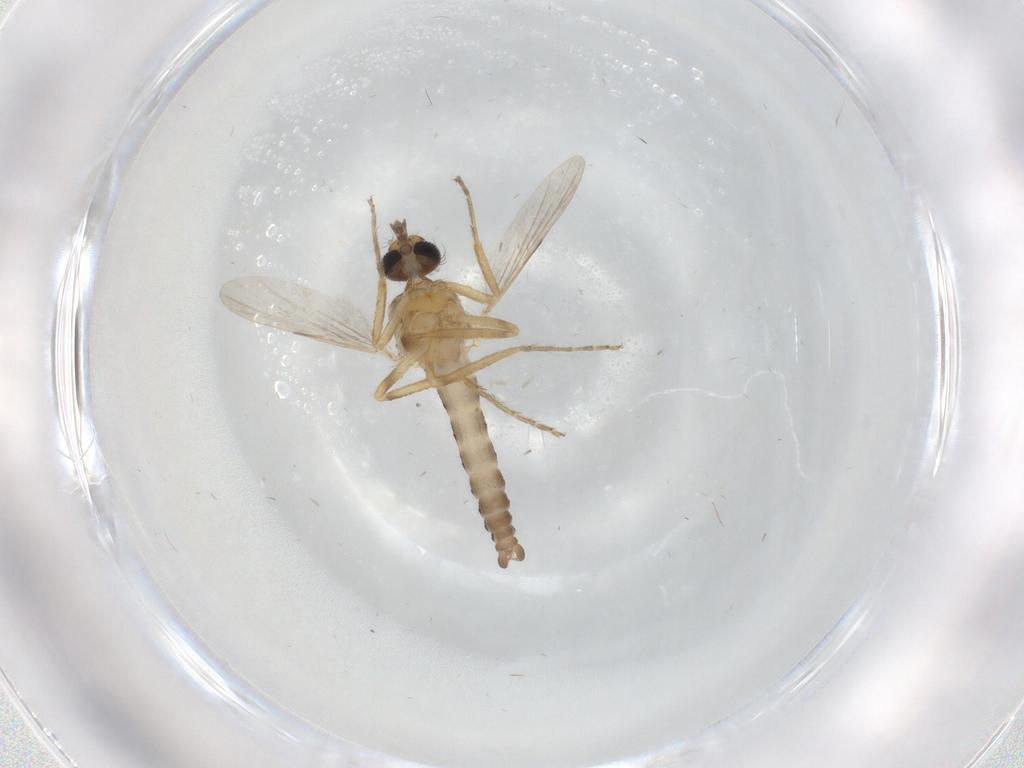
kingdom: Animalia
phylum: Arthropoda
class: Insecta
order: Diptera
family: Ceratopogonidae
